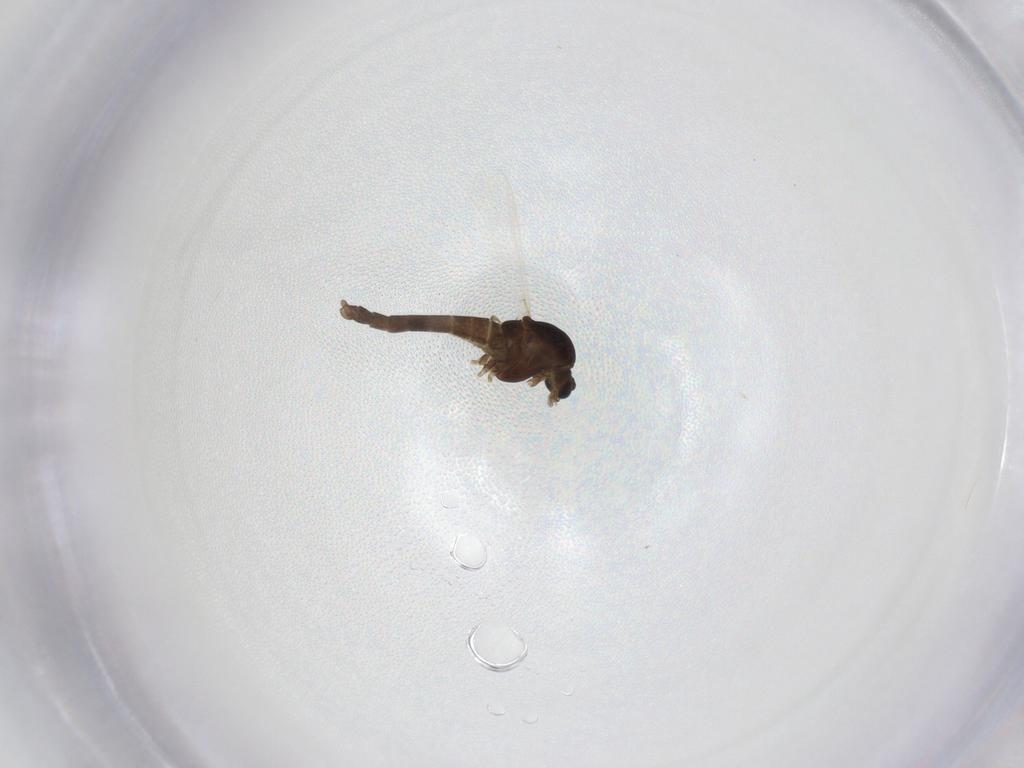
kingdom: Animalia
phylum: Arthropoda
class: Insecta
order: Diptera
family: Chironomidae
